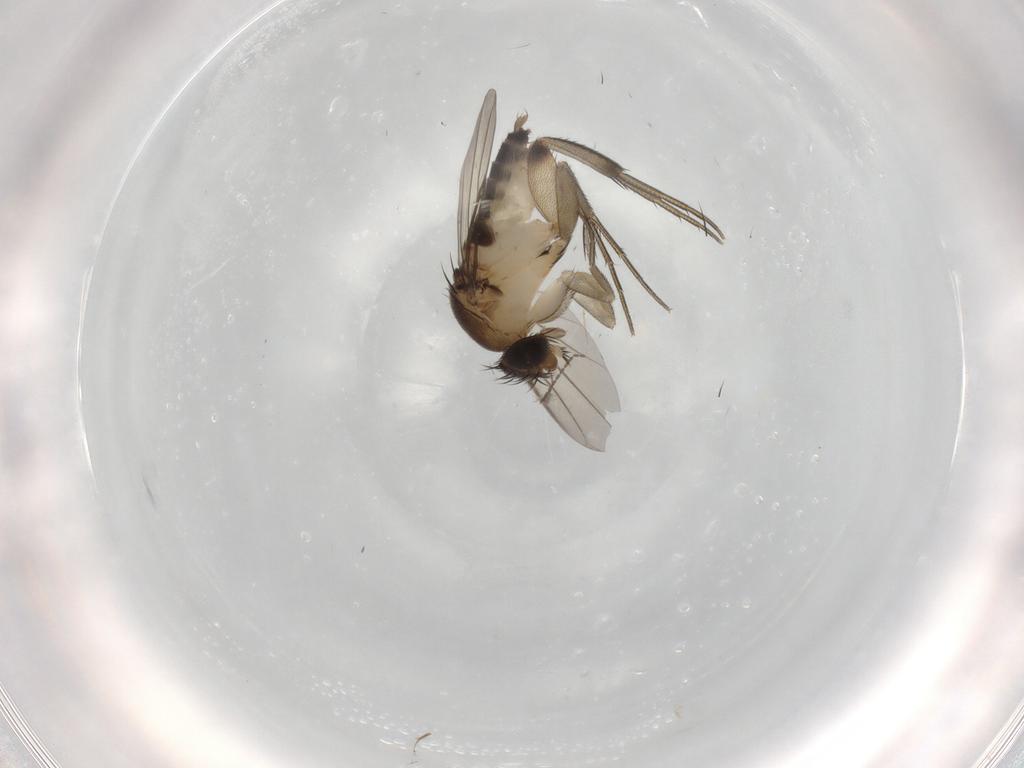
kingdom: Animalia
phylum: Arthropoda
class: Insecta
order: Diptera
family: Phoridae
